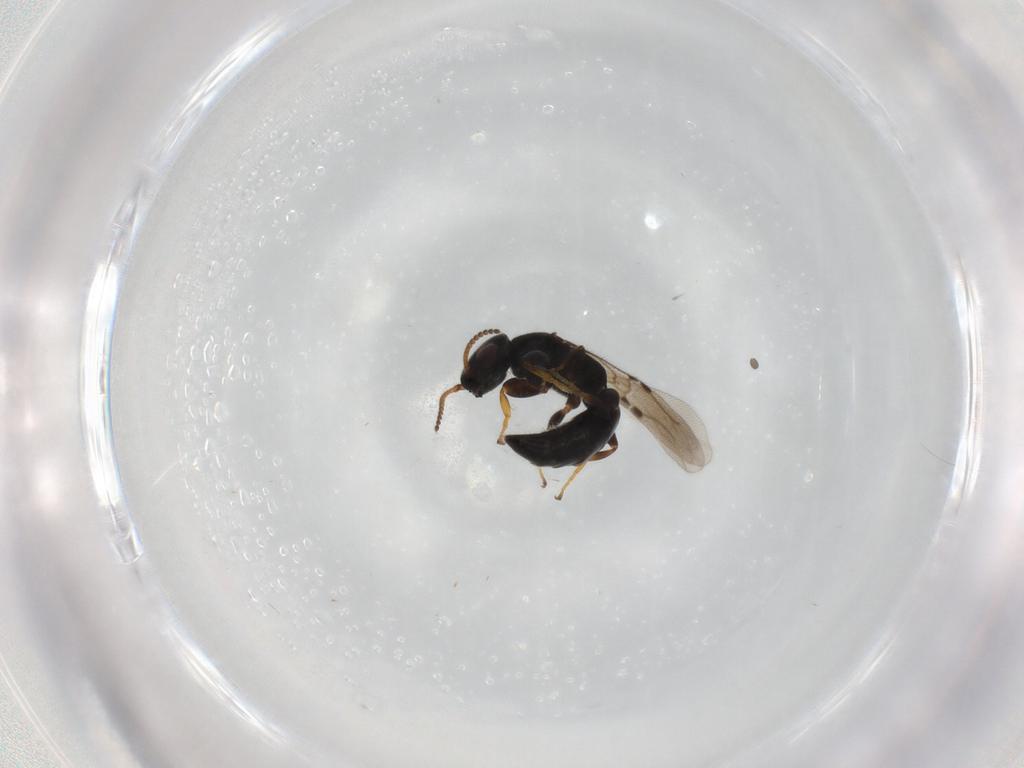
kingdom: Animalia
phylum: Arthropoda
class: Insecta
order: Hymenoptera
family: Bethylidae
